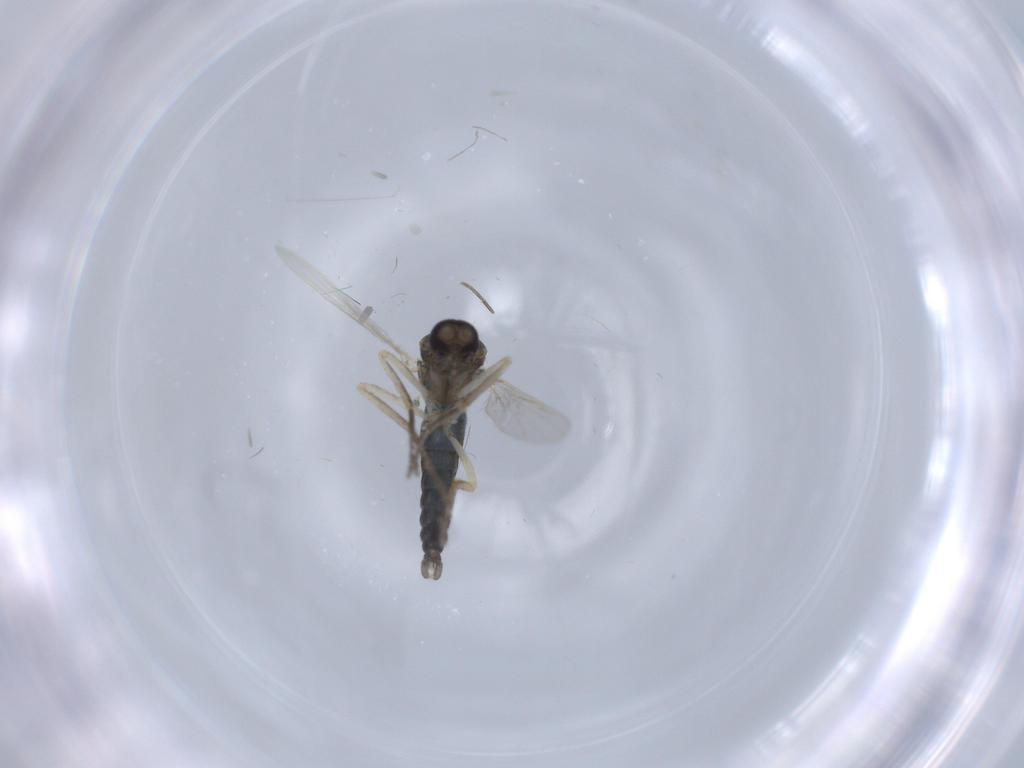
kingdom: Animalia
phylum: Arthropoda
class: Insecta
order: Diptera
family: Ceratopogonidae
